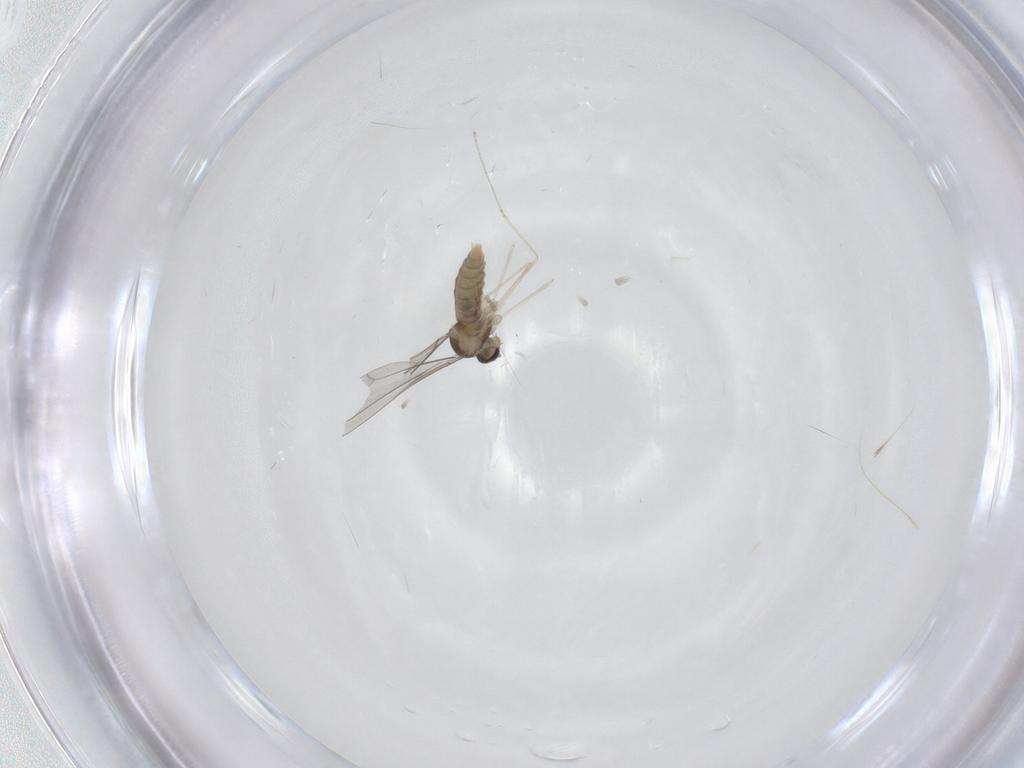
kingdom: Animalia
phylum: Arthropoda
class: Insecta
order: Diptera
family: Cecidomyiidae
